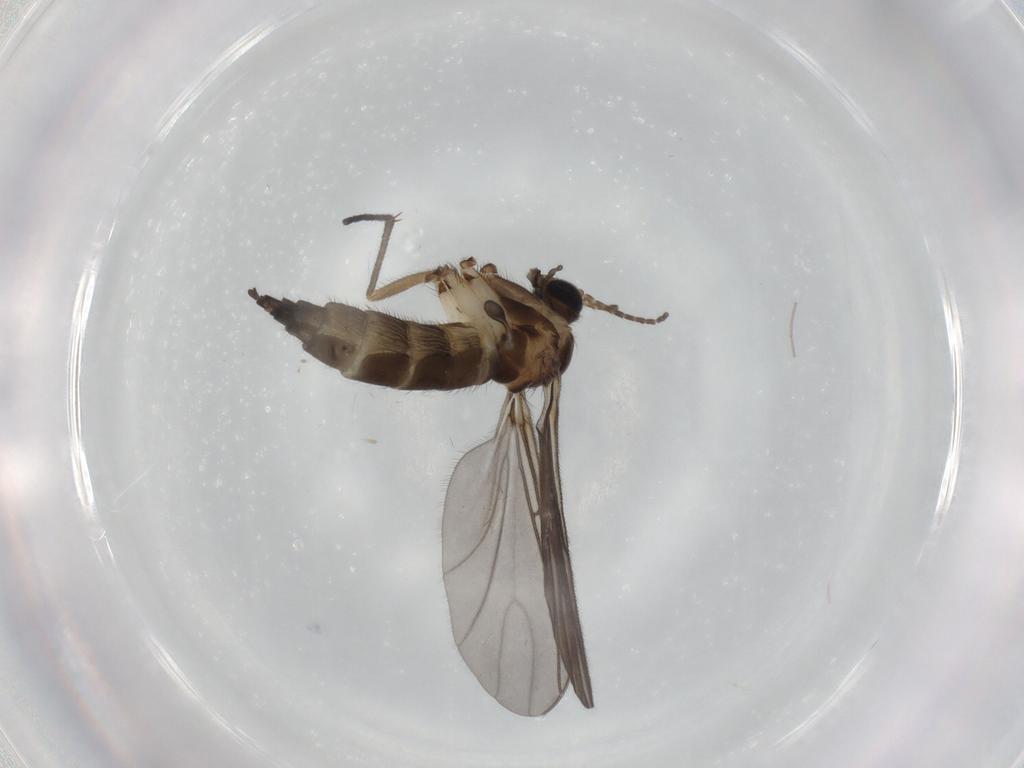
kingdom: Animalia
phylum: Arthropoda
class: Insecta
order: Diptera
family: Sciaridae
